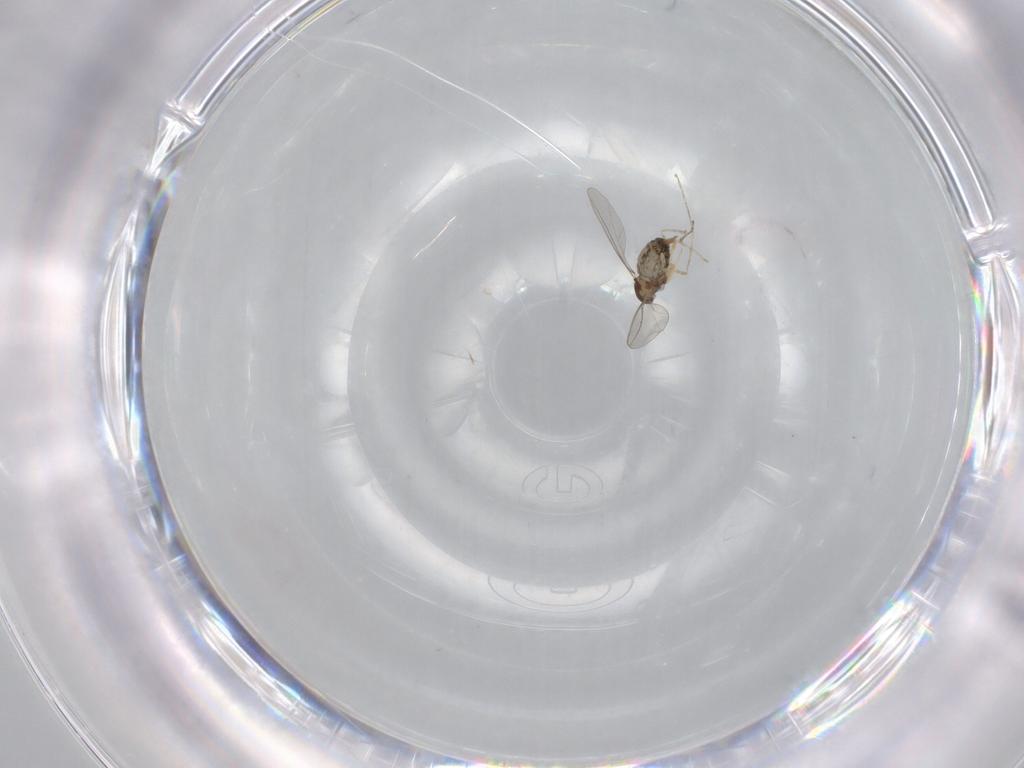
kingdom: Animalia
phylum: Arthropoda
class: Insecta
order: Diptera
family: Cecidomyiidae
